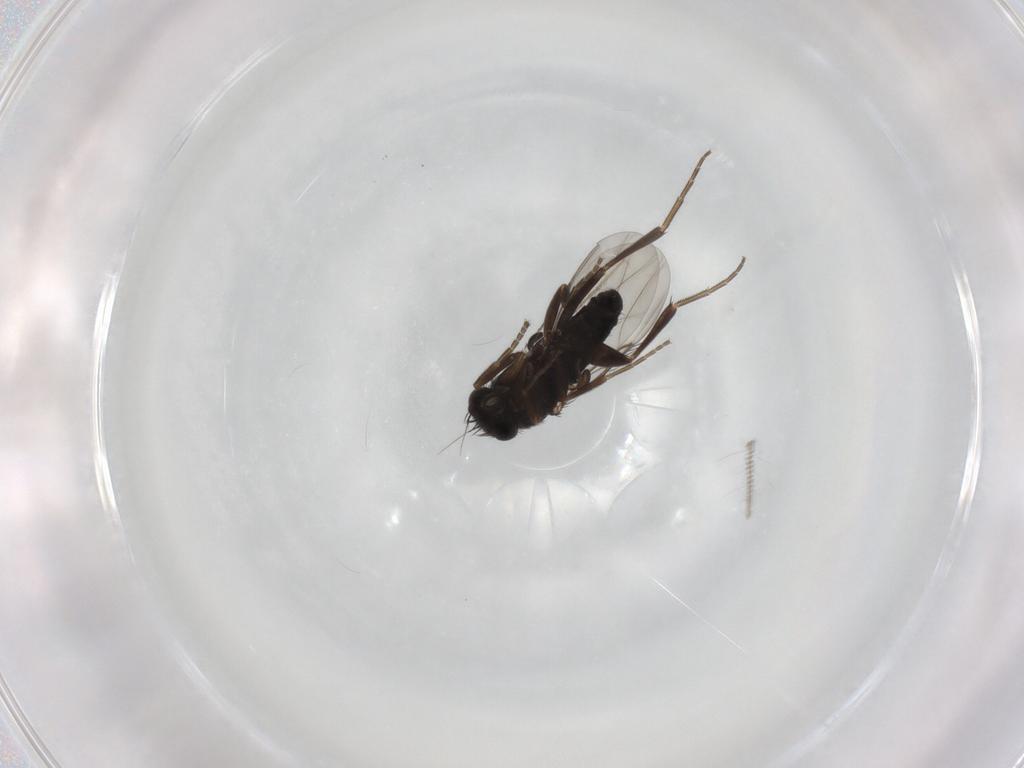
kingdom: Animalia
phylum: Arthropoda
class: Insecta
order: Diptera
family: Phoridae
